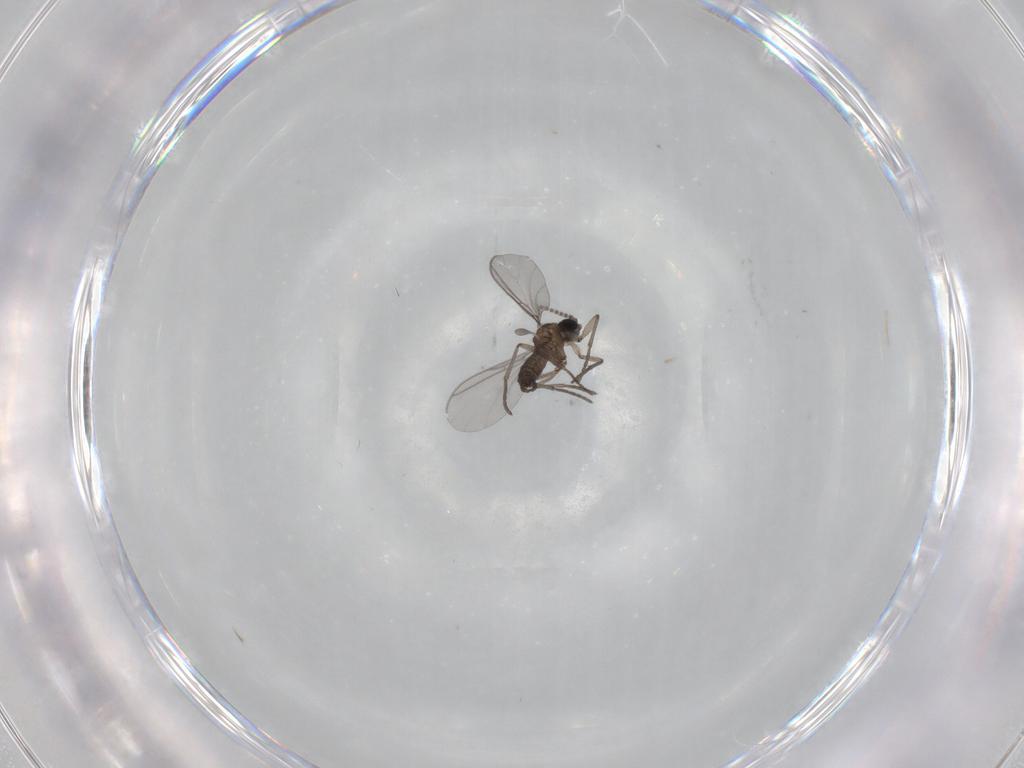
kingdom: Animalia
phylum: Arthropoda
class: Insecta
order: Diptera
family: Sciaridae
